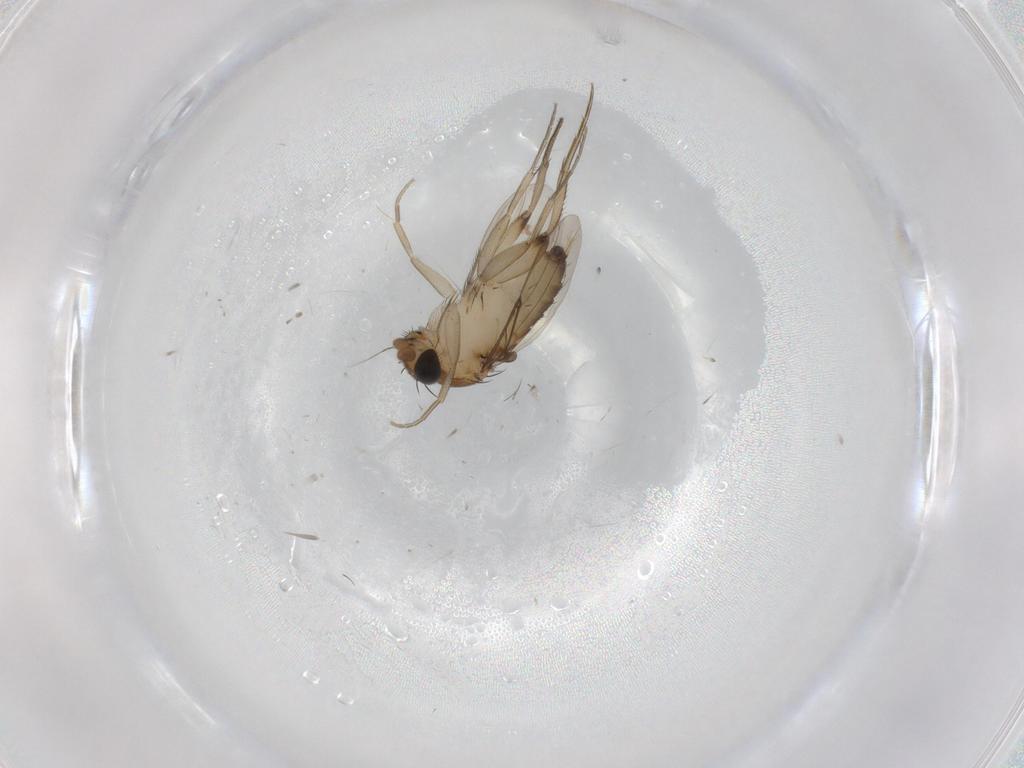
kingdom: Animalia
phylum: Arthropoda
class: Insecta
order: Diptera
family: Phoridae
